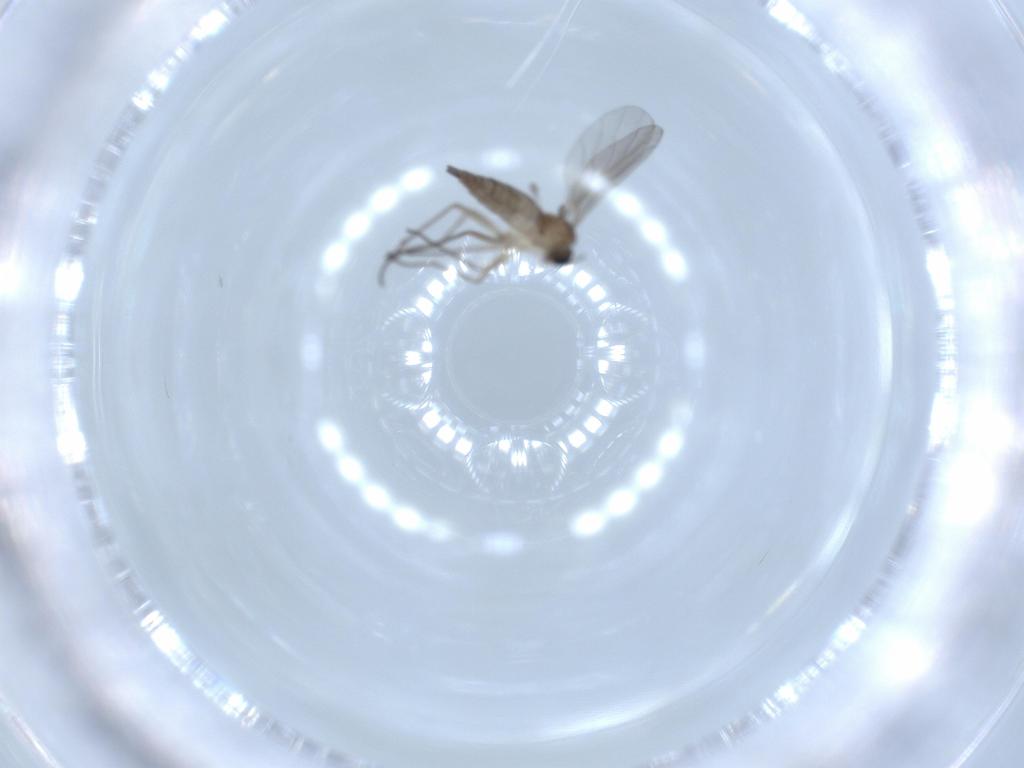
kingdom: Animalia
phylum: Arthropoda
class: Insecta
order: Diptera
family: Sciaridae
